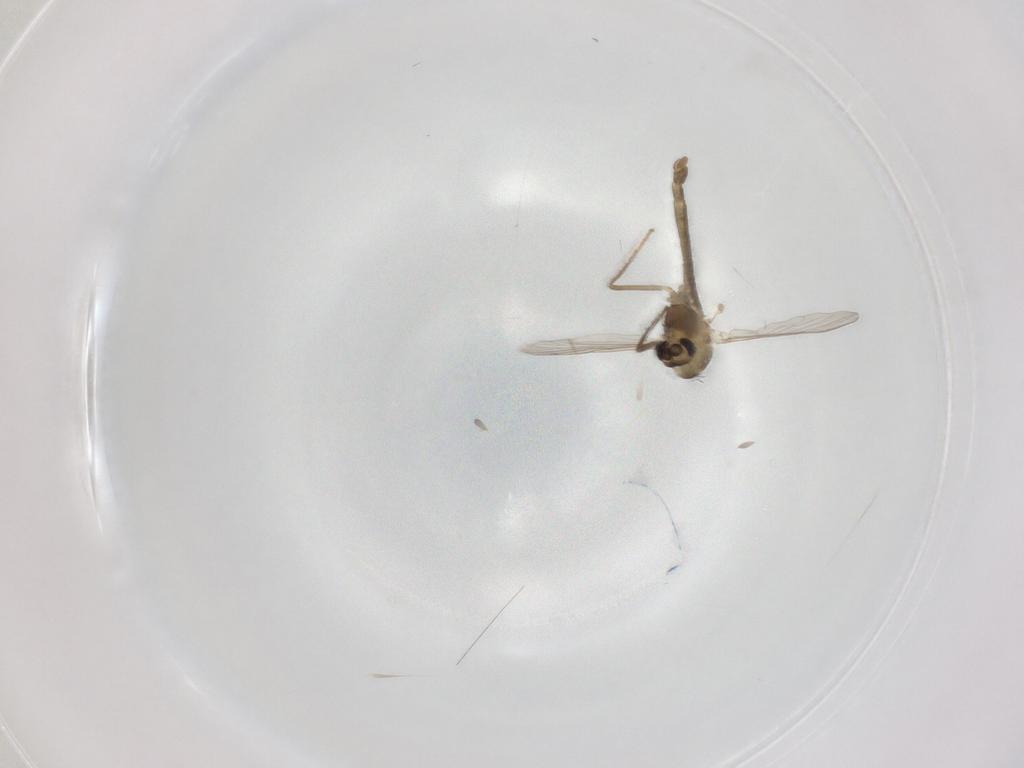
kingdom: Animalia
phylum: Arthropoda
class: Insecta
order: Diptera
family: Chironomidae
